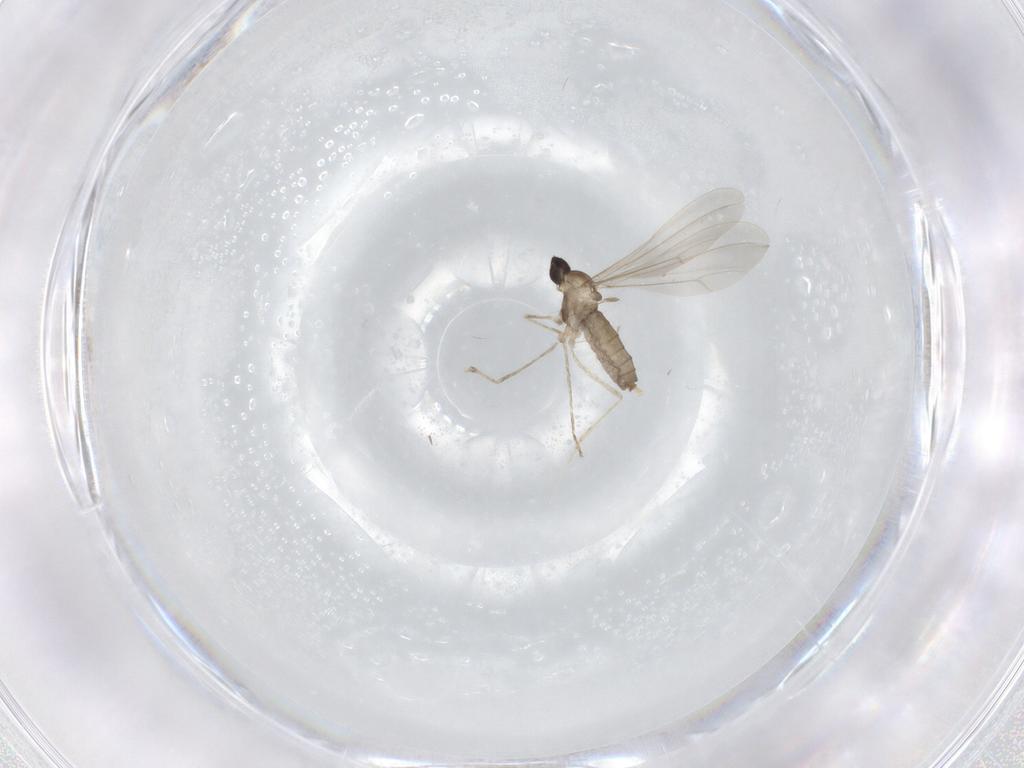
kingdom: Animalia
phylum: Arthropoda
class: Insecta
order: Diptera
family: Cecidomyiidae
